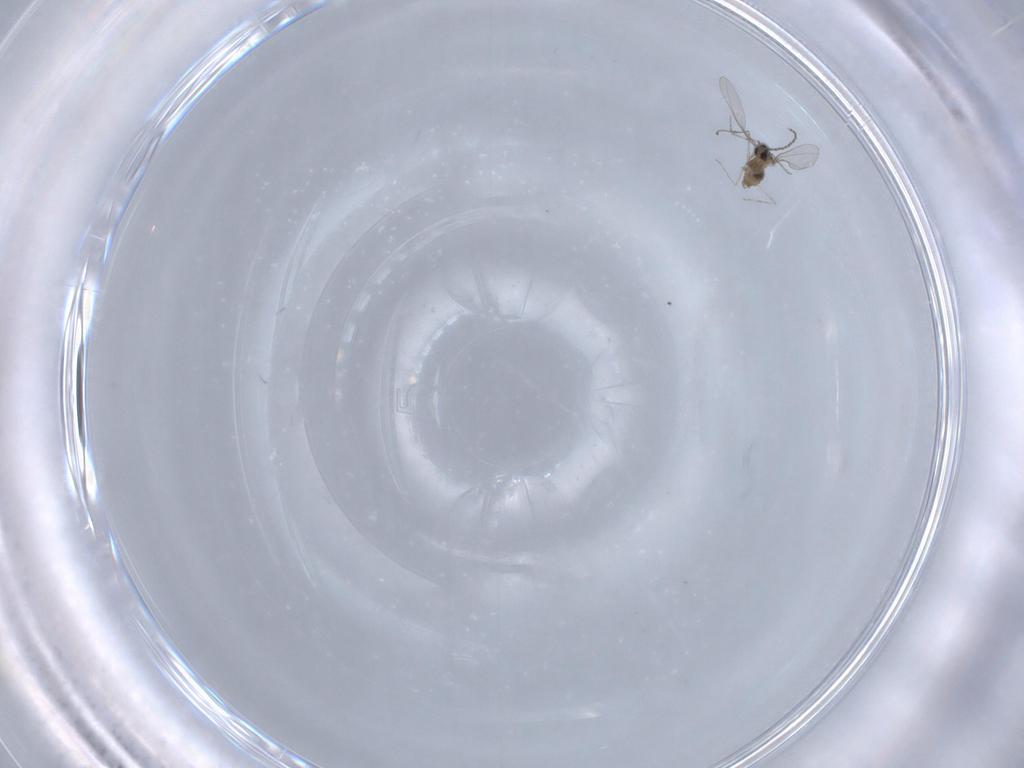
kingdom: Animalia
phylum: Arthropoda
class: Insecta
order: Diptera
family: Cecidomyiidae
